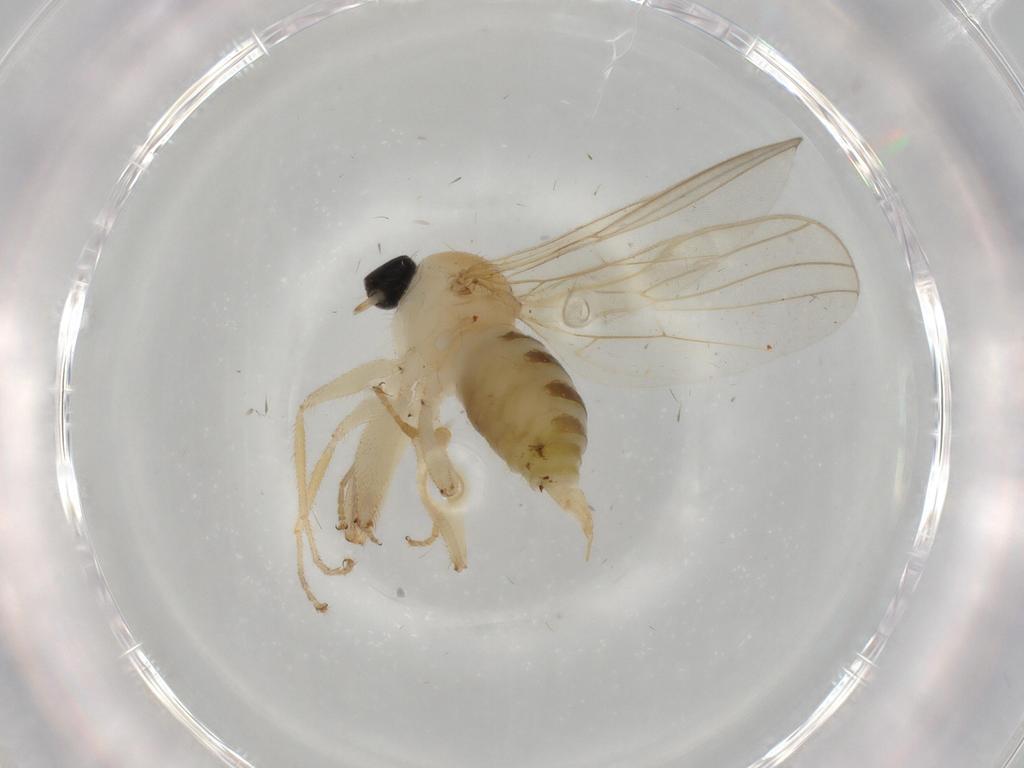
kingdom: Animalia
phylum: Arthropoda
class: Insecta
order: Diptera
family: Hybotidae
